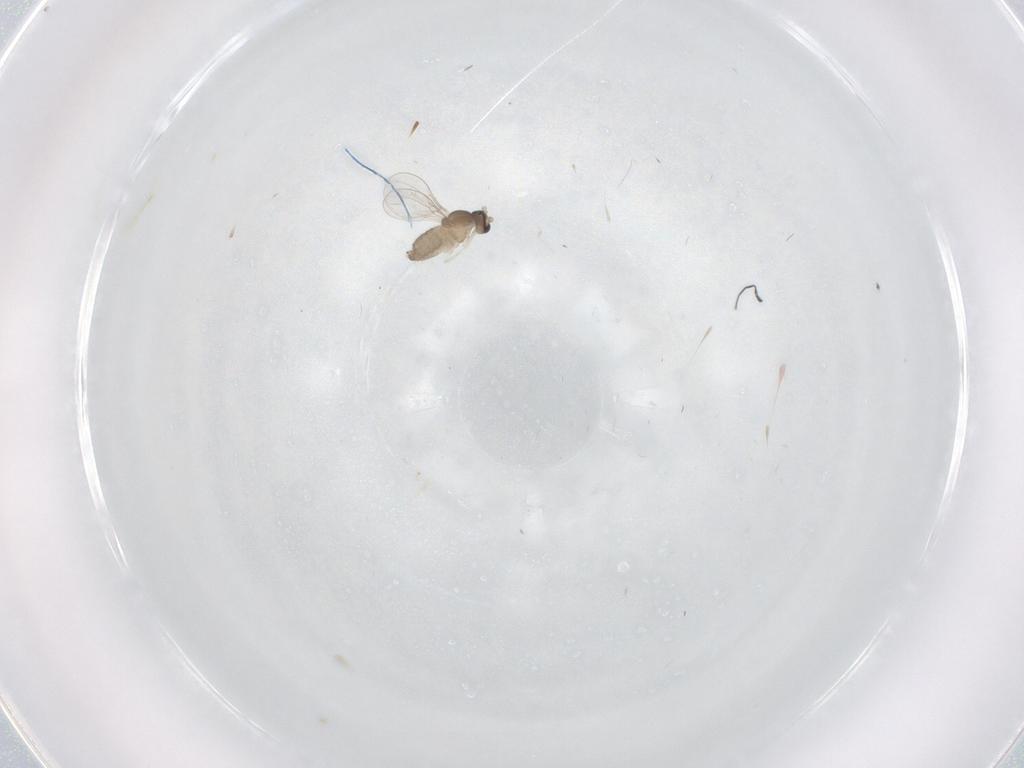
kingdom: Animalia
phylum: Arthropoda
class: Insecta
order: Diptera
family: Cecidomyiidae
